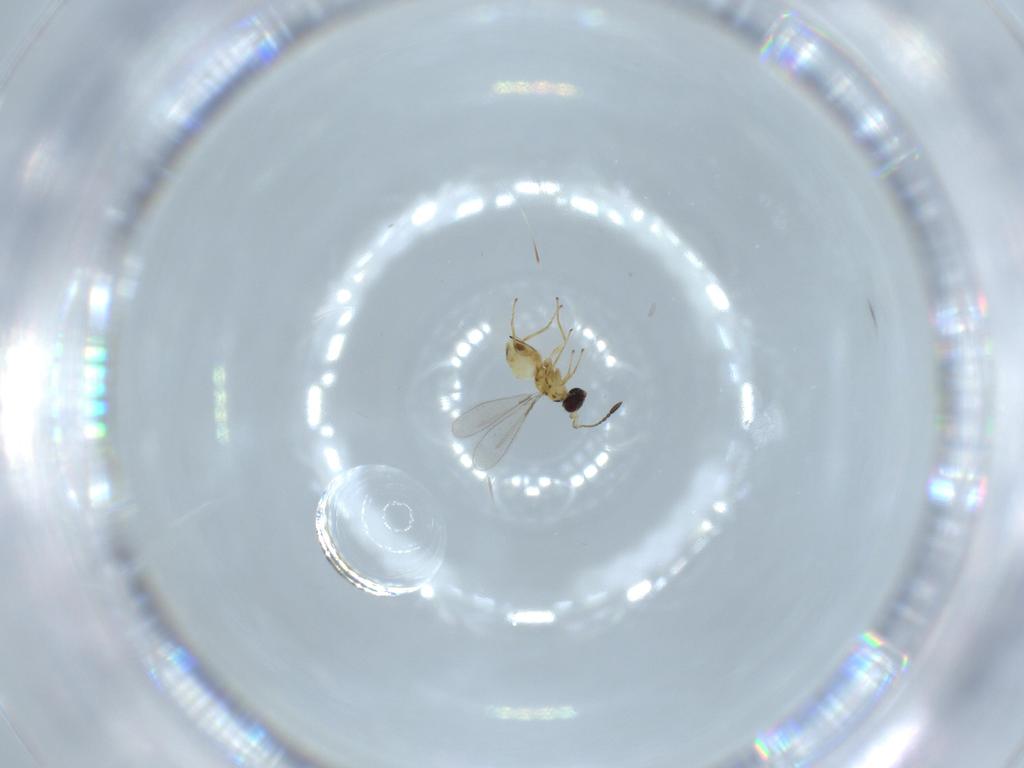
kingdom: Animalia
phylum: Arthropoda
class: Insecta
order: Hymenoptera
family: Mymaridae
